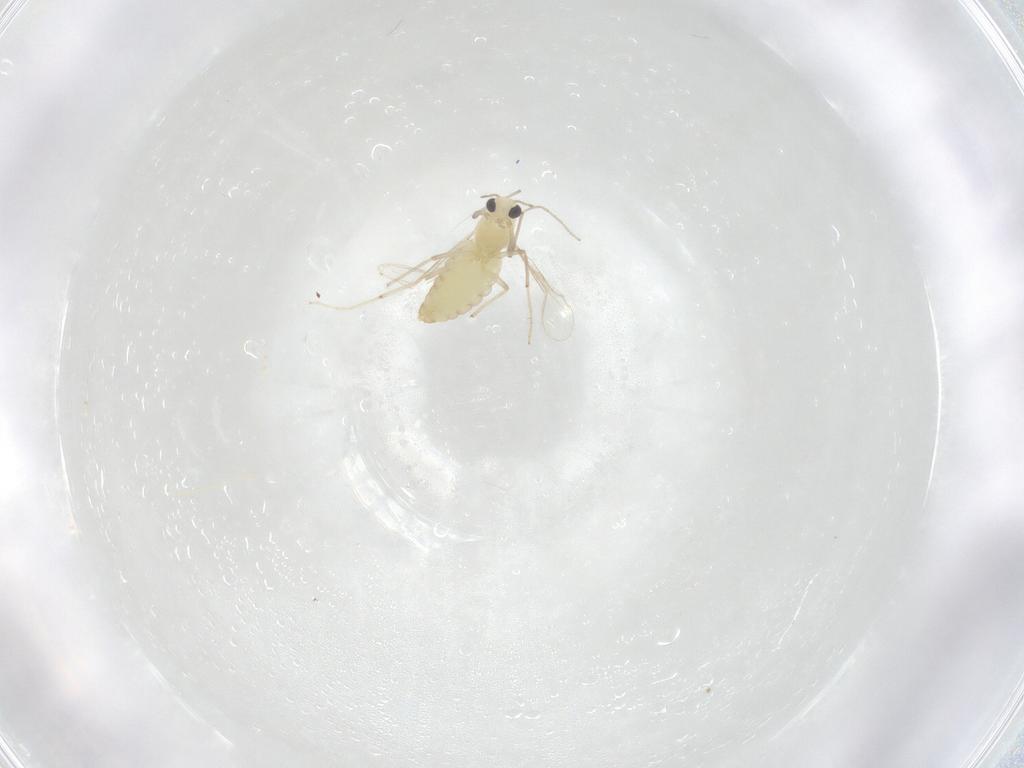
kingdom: Animalia
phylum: Arthropoda
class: Insecta
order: Diptera
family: Chironomidae
